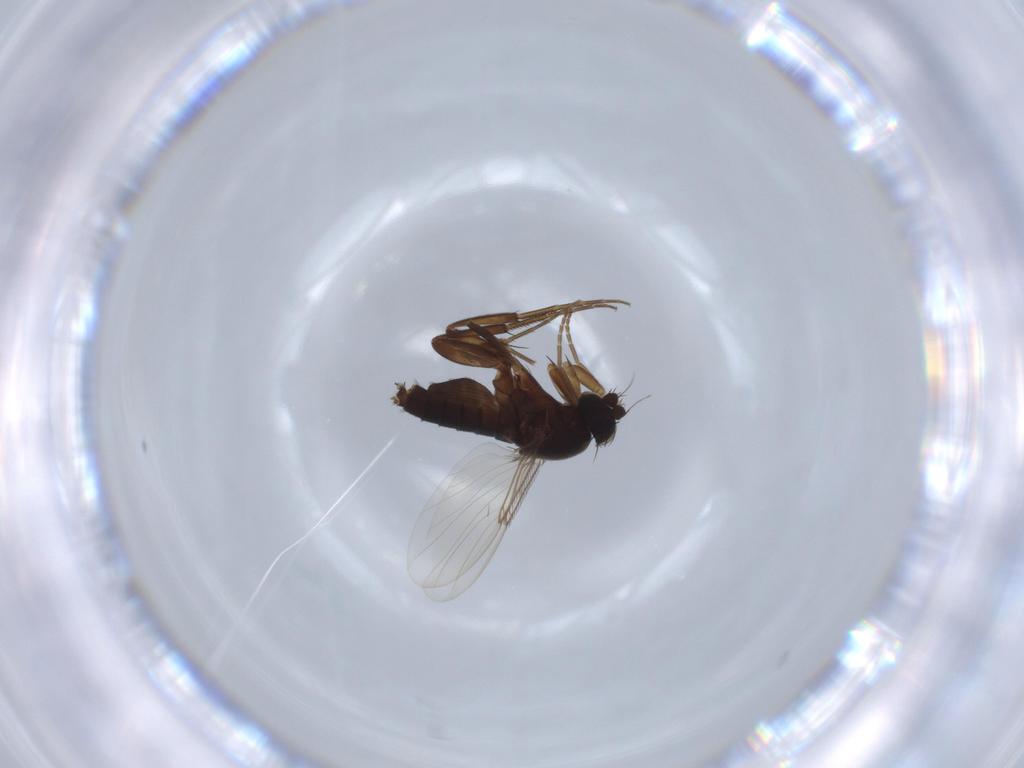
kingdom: Animalia
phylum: Arthropoda
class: Insecta
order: Diptera
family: Phoridae
